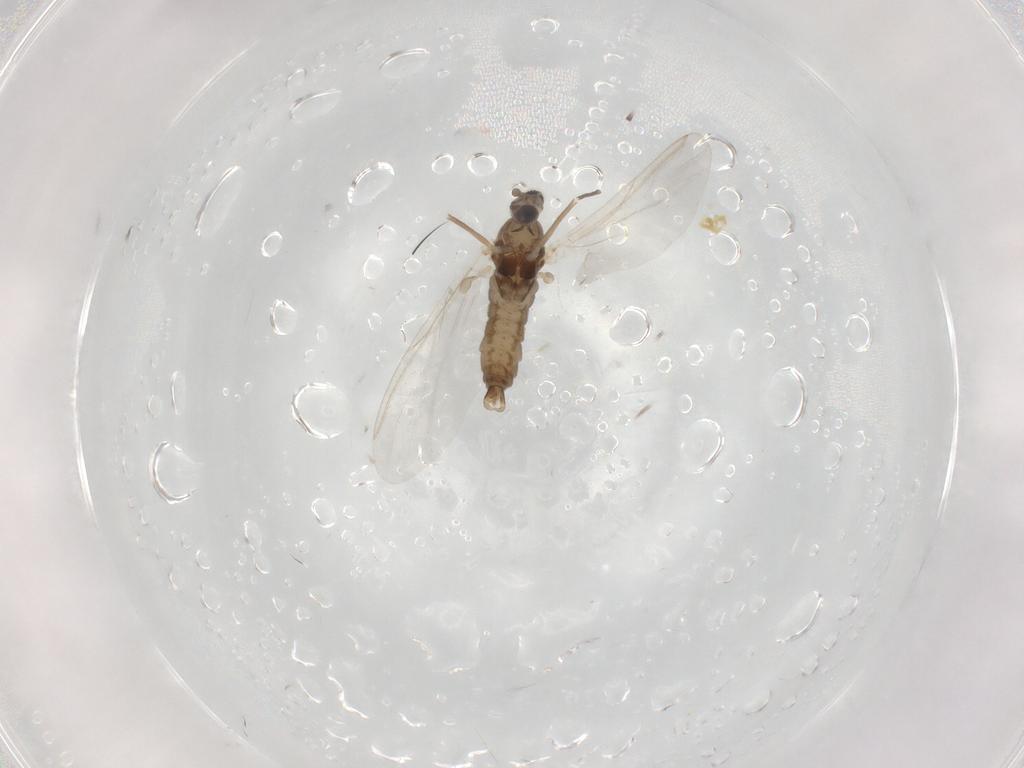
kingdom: Animalia
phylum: Arthropoda
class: Insecta
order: Diptera
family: Cecidomyiidae
